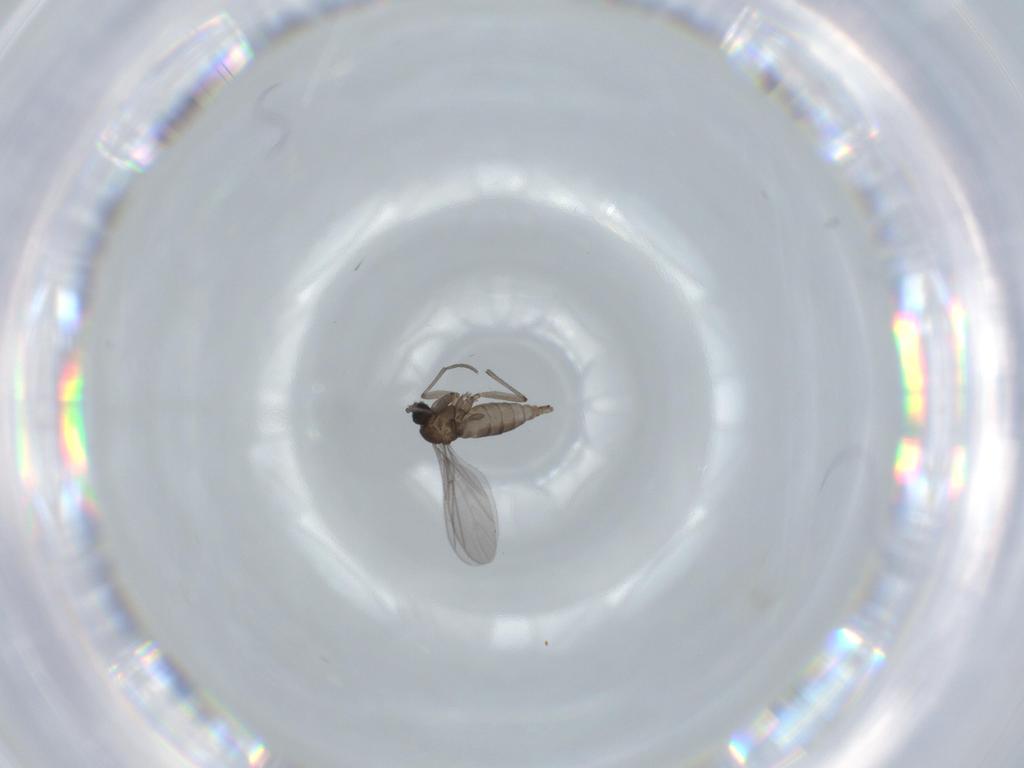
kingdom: Animalia
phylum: Arthropoda
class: Insecta
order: Diptera
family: Sciaridae
